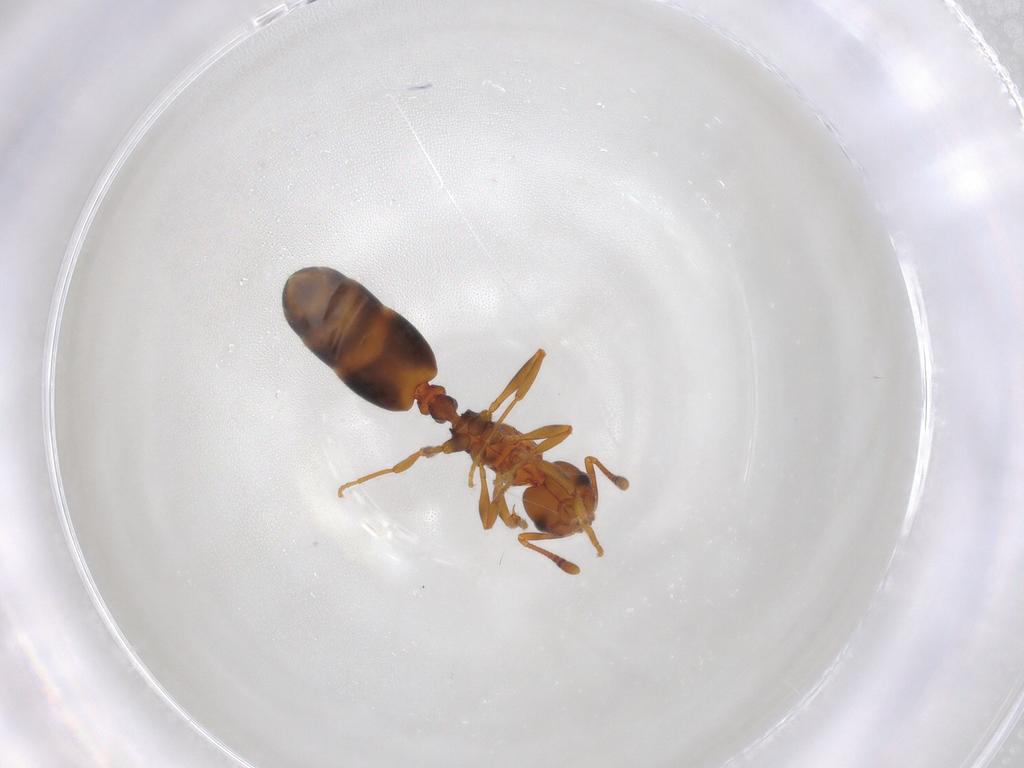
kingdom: Animalia
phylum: Arthropoda
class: Insecta
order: Hymenoptera
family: Formicidae
